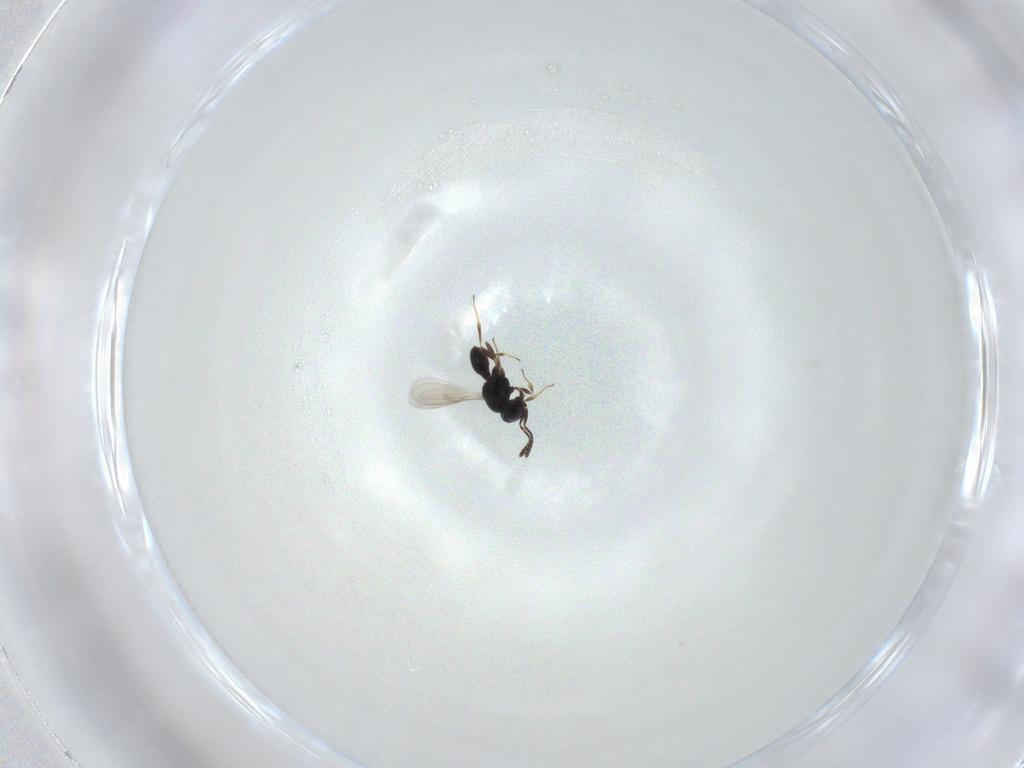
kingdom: Animalia
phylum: Arthropoda
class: Insecta
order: Hymenoptera
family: Scelionidae
